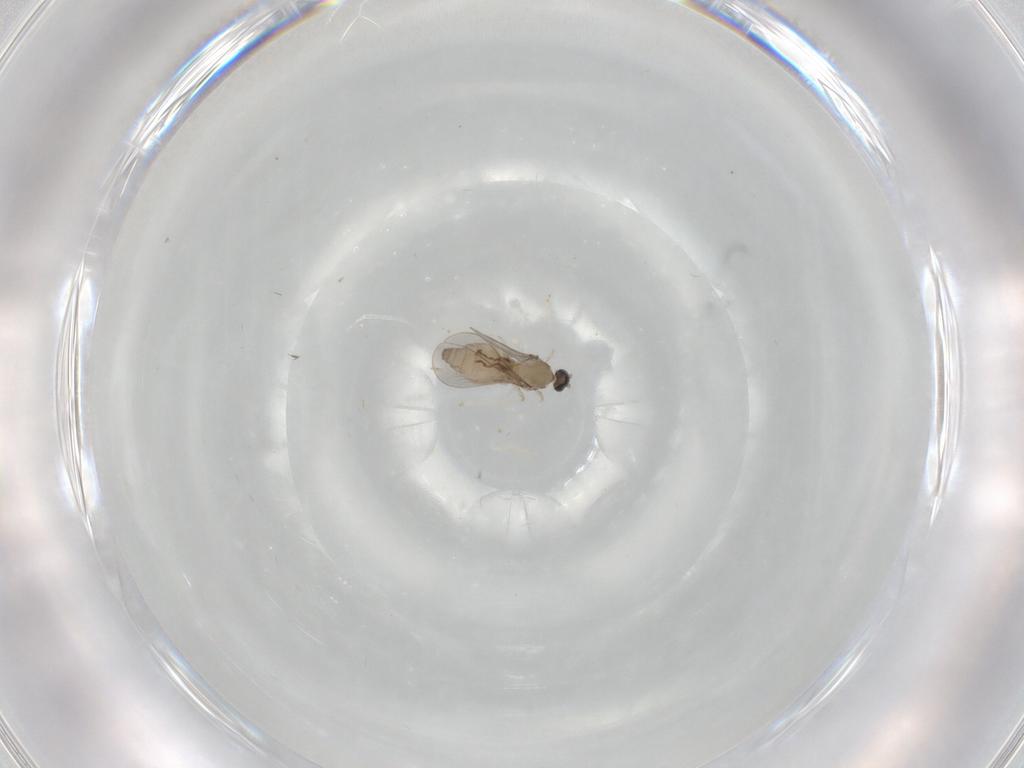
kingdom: Animalia
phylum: Arthropoda
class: Insecta
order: Diptera
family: Cecidomyiidae
